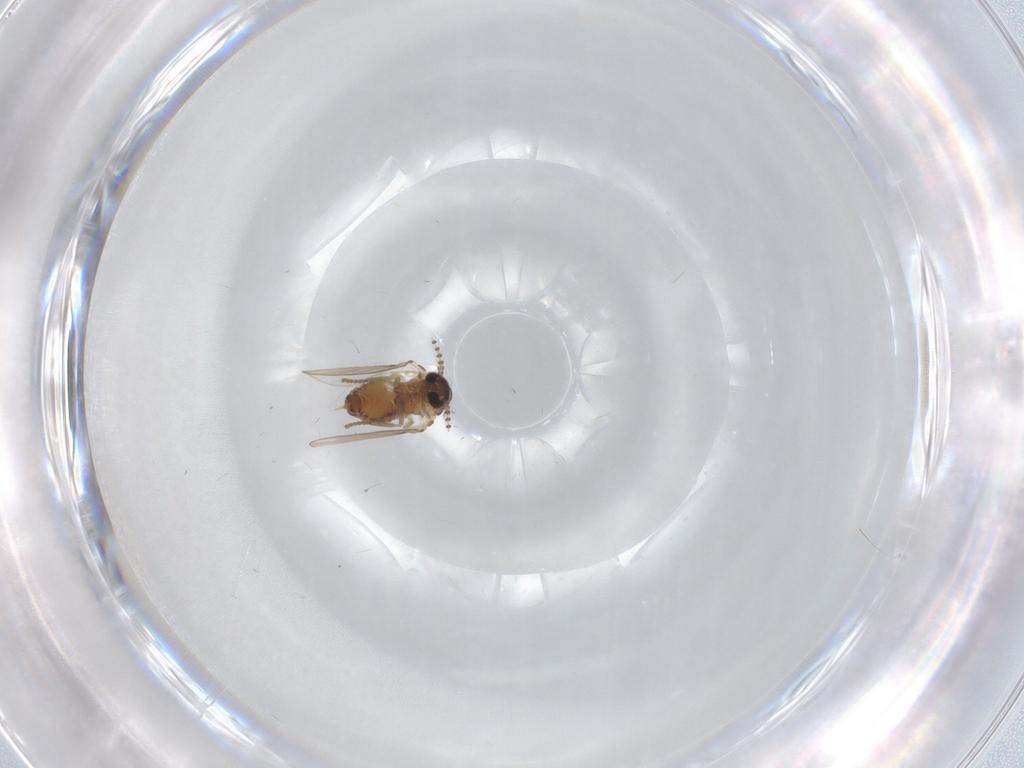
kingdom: Animalia
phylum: Arthropoda
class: Insecta
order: Diptera
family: Psychodidae
